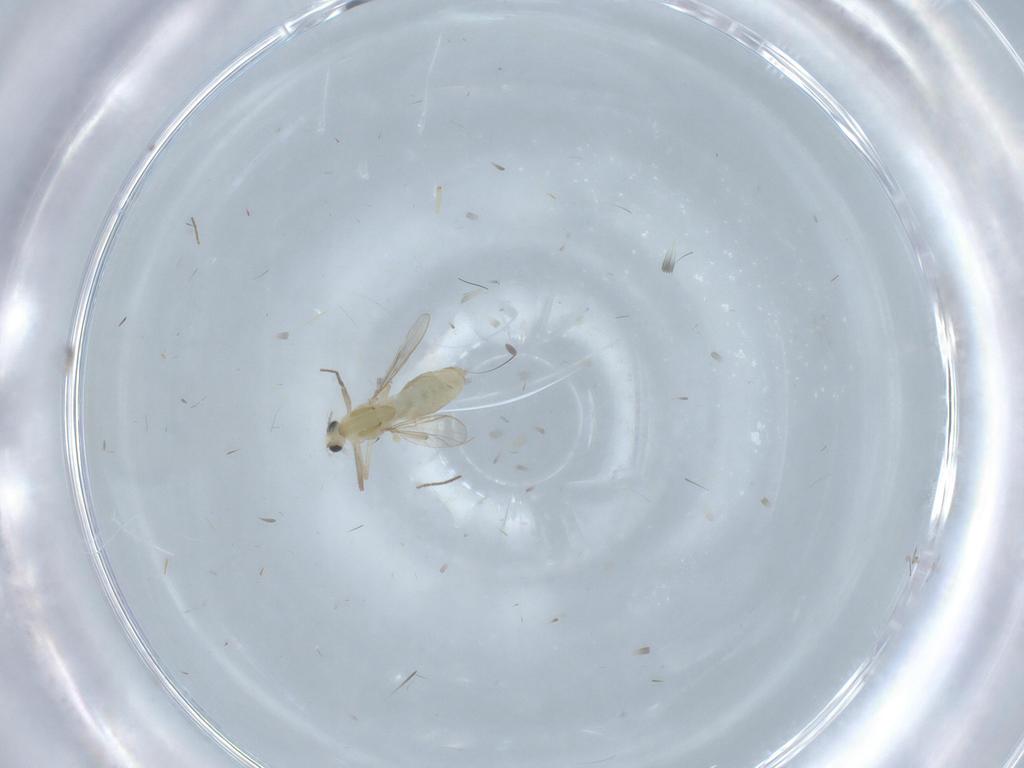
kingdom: Animalia
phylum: Arthropoda
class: Insecta
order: Diptera
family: Chironomidae
